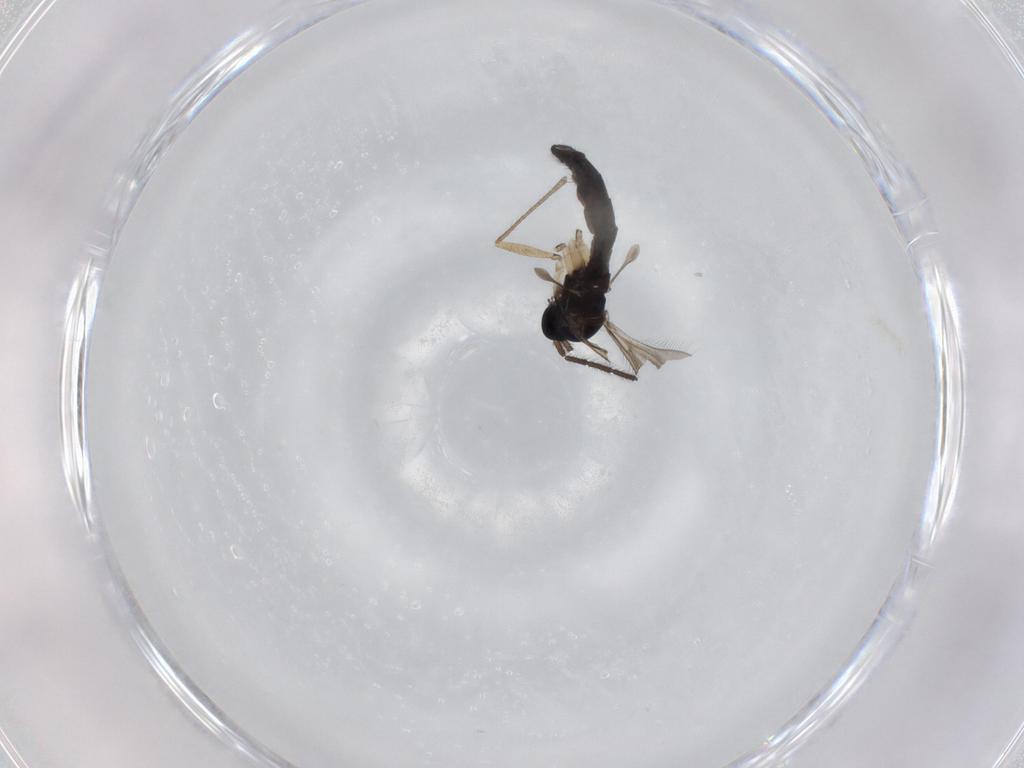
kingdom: Animalia
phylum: Arthropoda
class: Insecta
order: Diptera
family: Sciaridae
